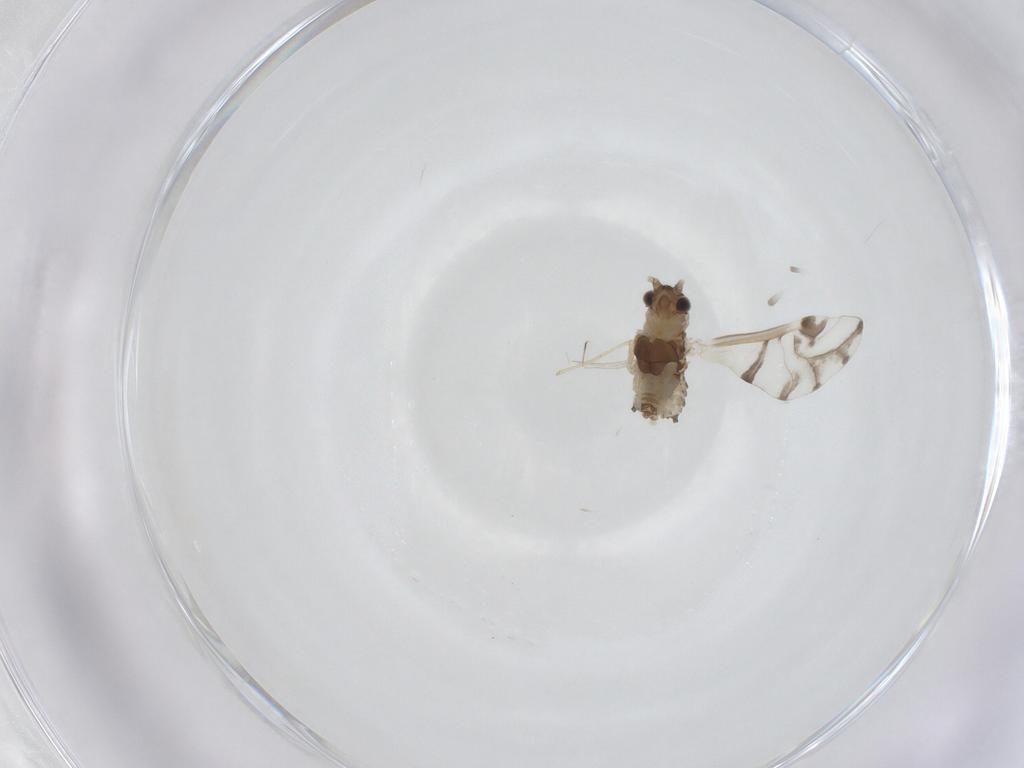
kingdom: Animalia
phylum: Arthropoda
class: Insecta
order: Hemiptera
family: Aphididae
